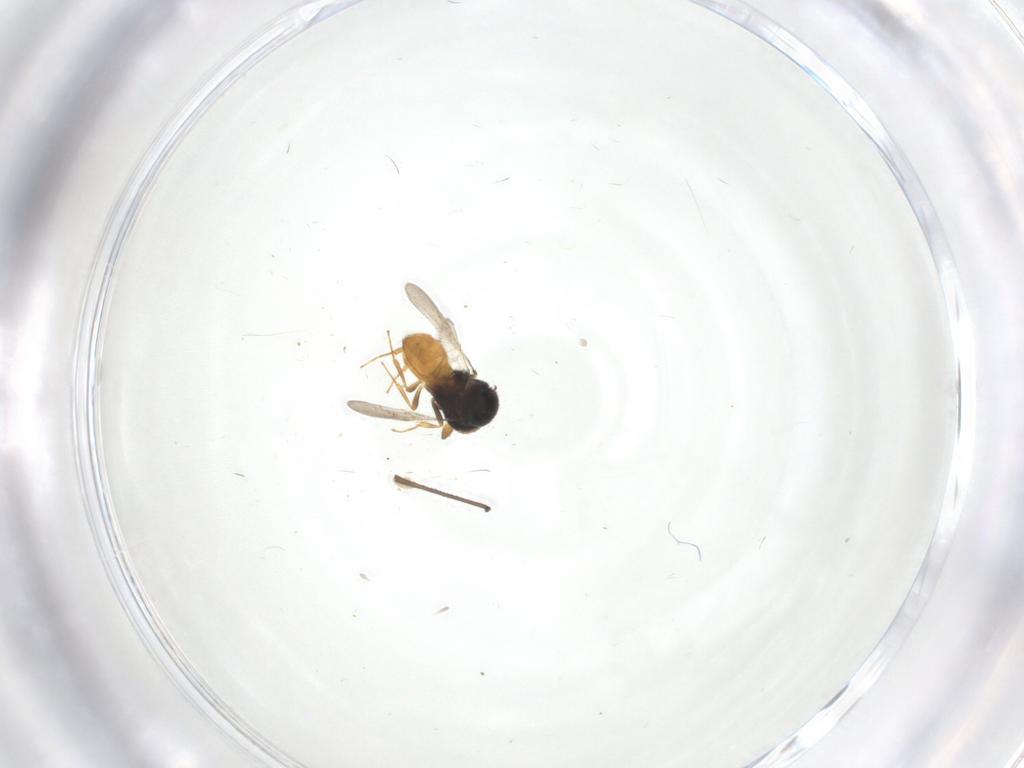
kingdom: Animalia
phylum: Arthropoda
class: Insecta
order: Hymenoptera
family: Scelionidae
